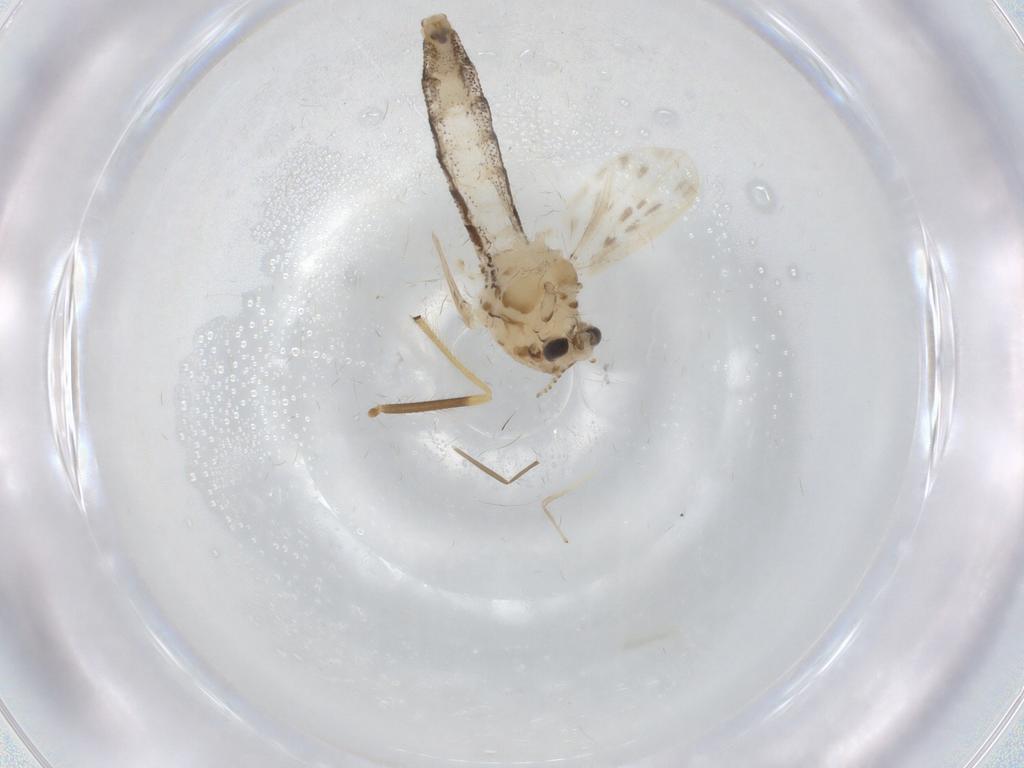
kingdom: Animalia
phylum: Arthropoda
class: Insecta
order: Diptera
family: Chaoboridae
